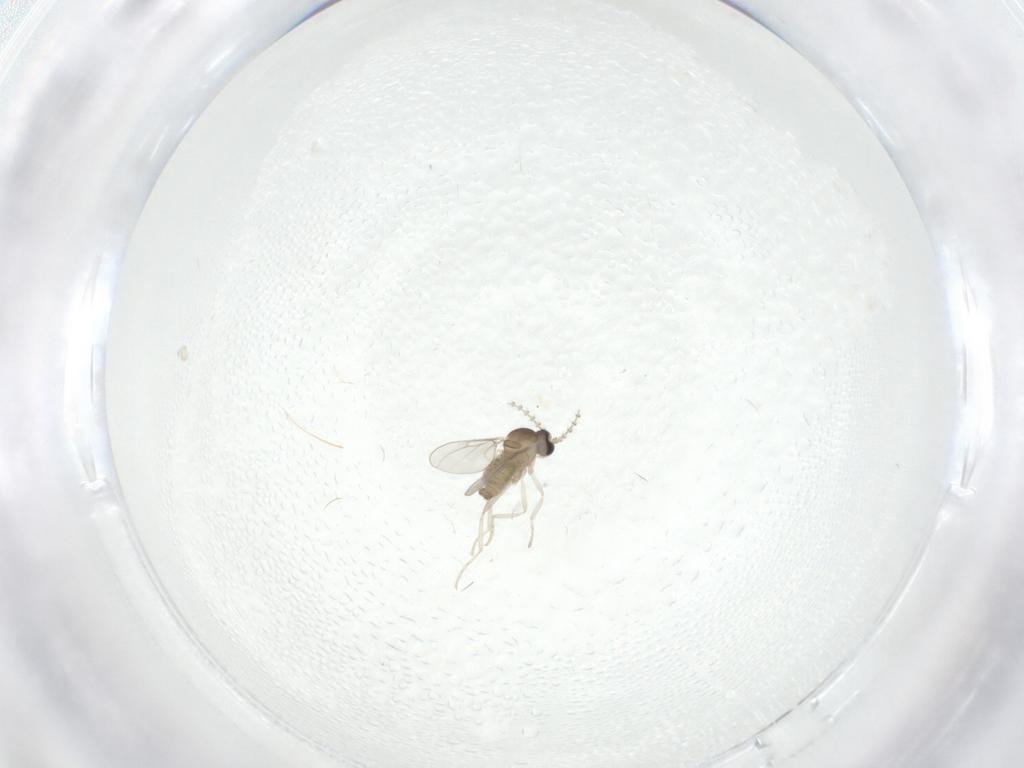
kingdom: Animalia
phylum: Arthropoda
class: Insecta
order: Diptera
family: Cecidomyiidae
